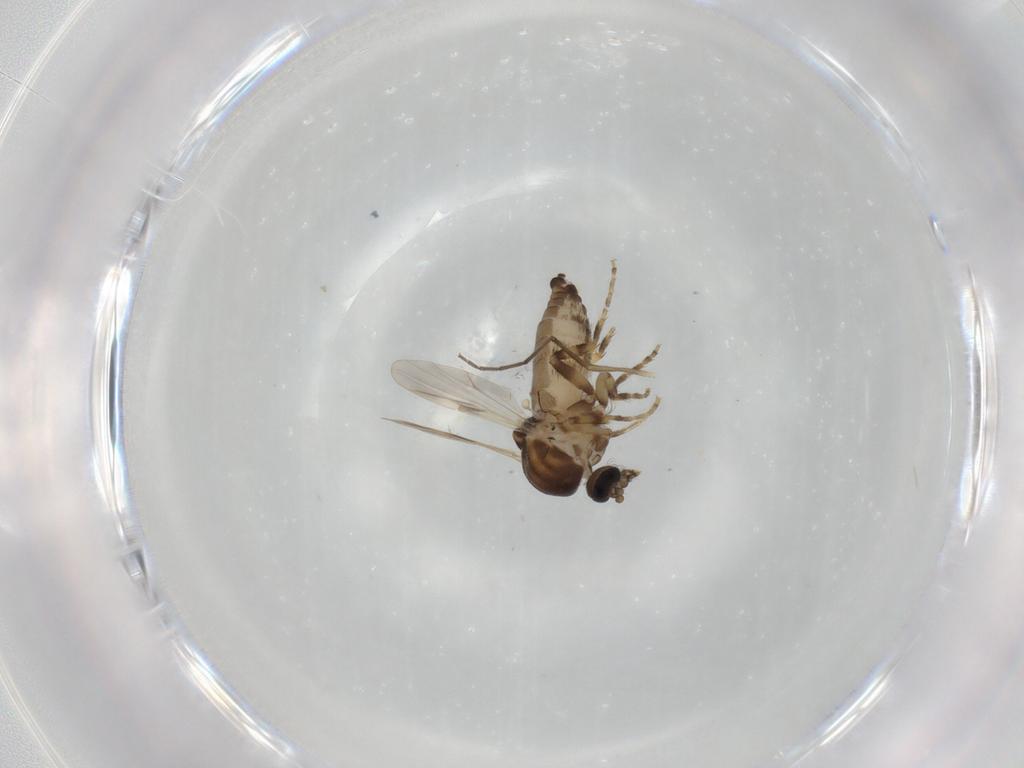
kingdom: Animalia
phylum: Arthropoda
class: Insecta
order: Diptera
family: Ceratopogonidae
